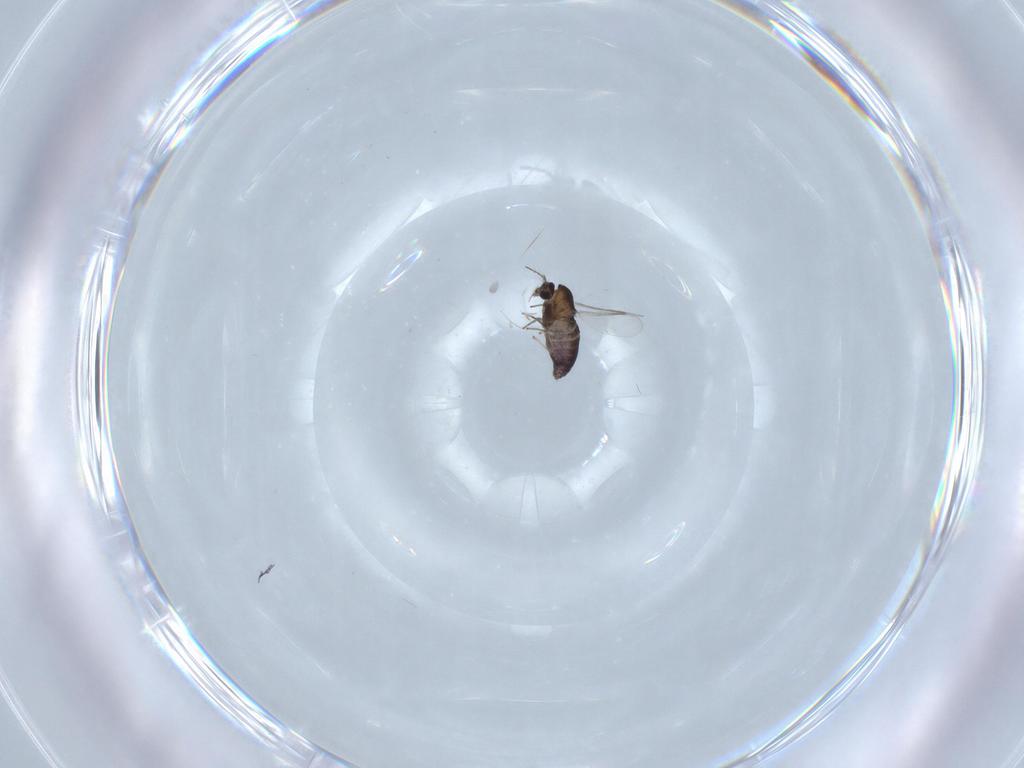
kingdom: Animalia
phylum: Arthropoda
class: Insecta
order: Diptera
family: Chironomidae
